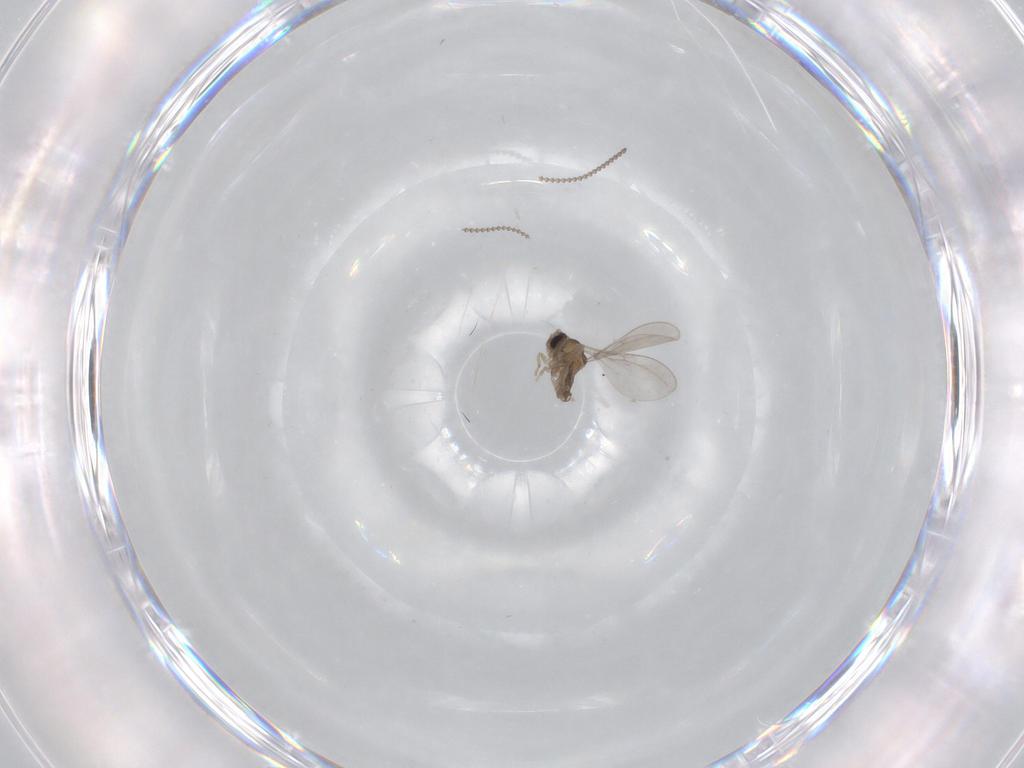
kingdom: Animalia
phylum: Arthropoda
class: Insecta
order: Diptera
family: Cecidomyiidae
